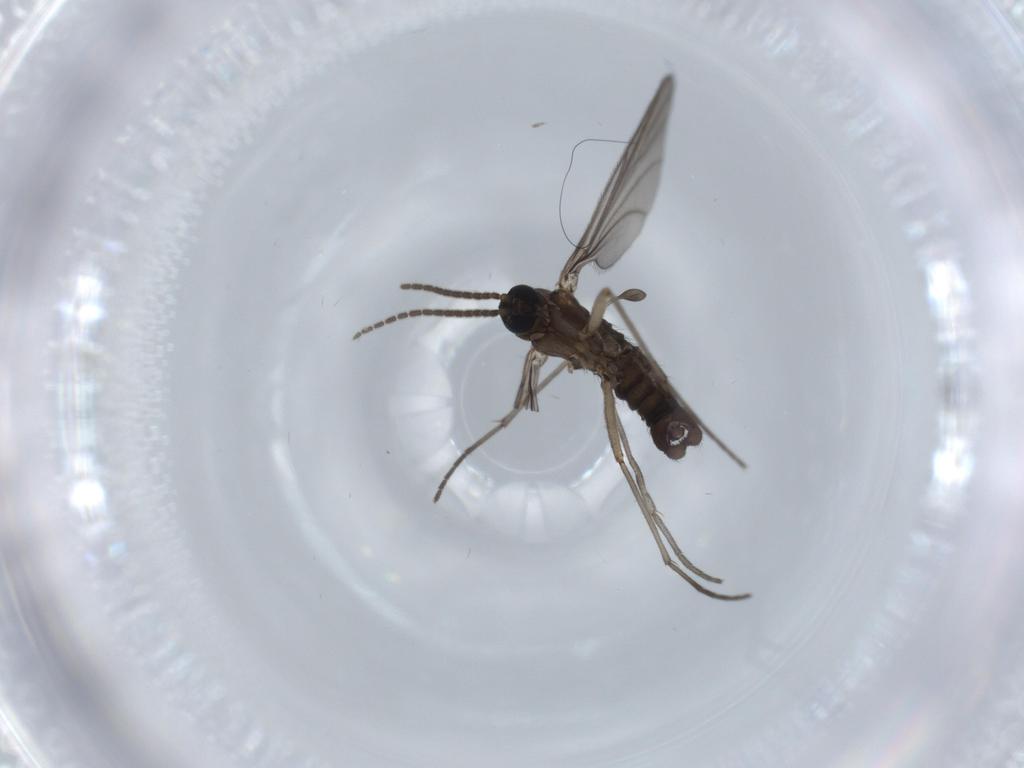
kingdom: Animalia
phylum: Arthropoda
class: Insecta
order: Diptera
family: Sciaridae
